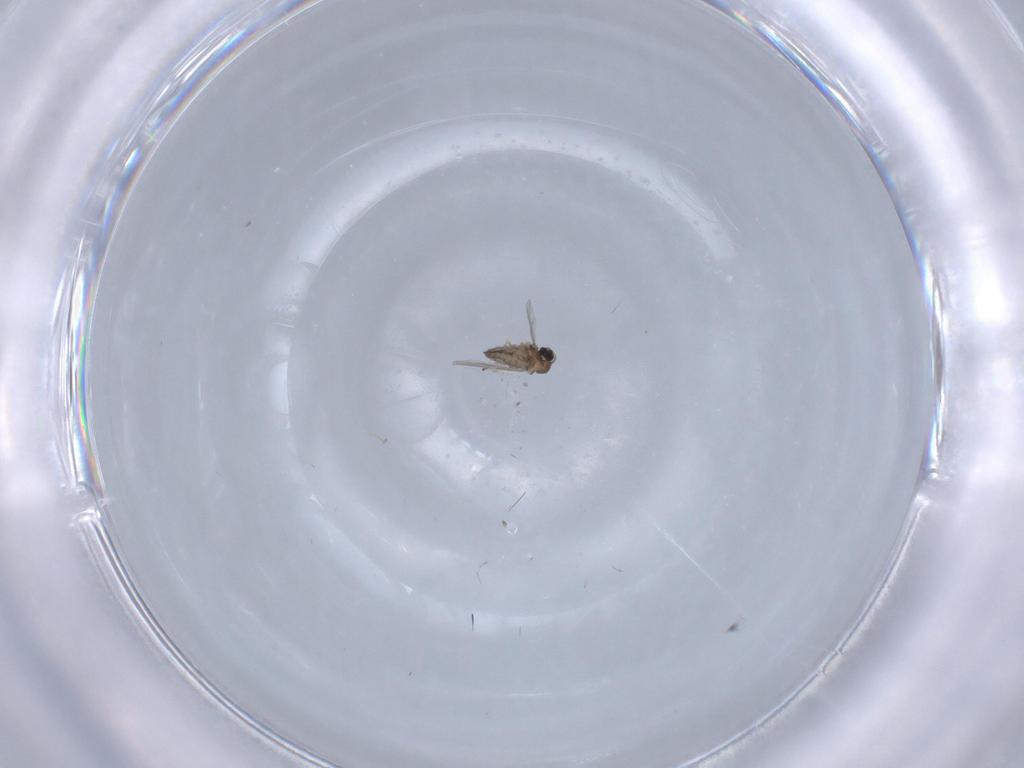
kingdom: Animalia
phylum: Arthropoda
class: Insecta
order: Diptera
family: Cecidomyiidae
